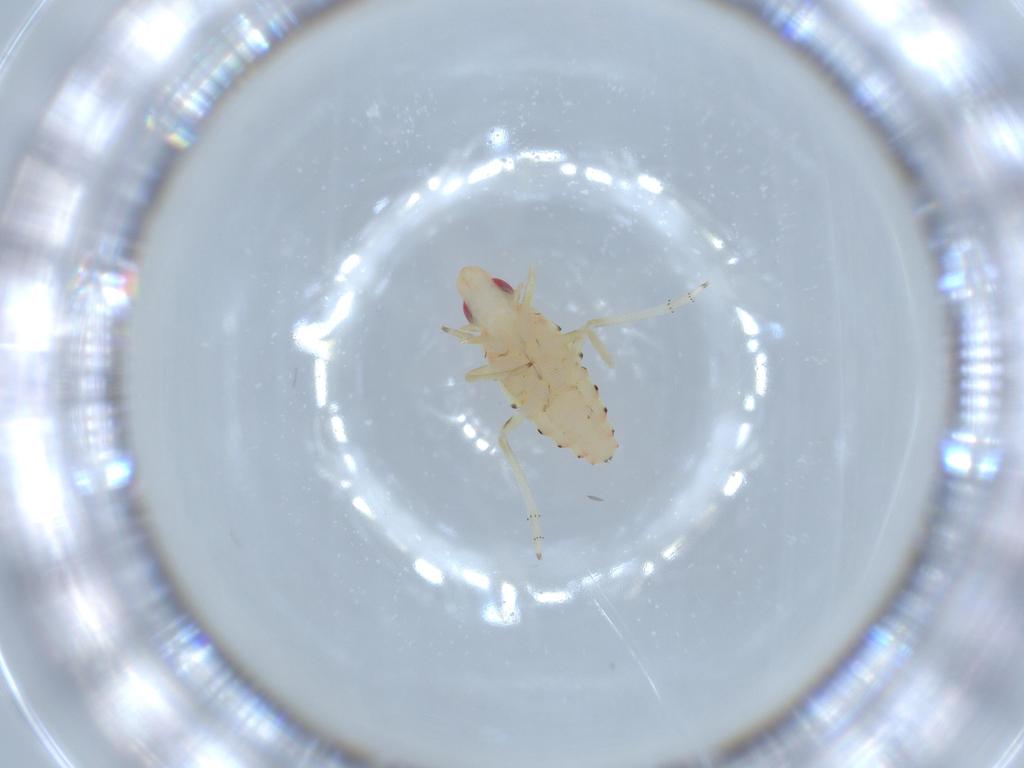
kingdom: Animalia
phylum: Arthropoda
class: Insecta
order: Hemiptera
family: Tropiduchidae
